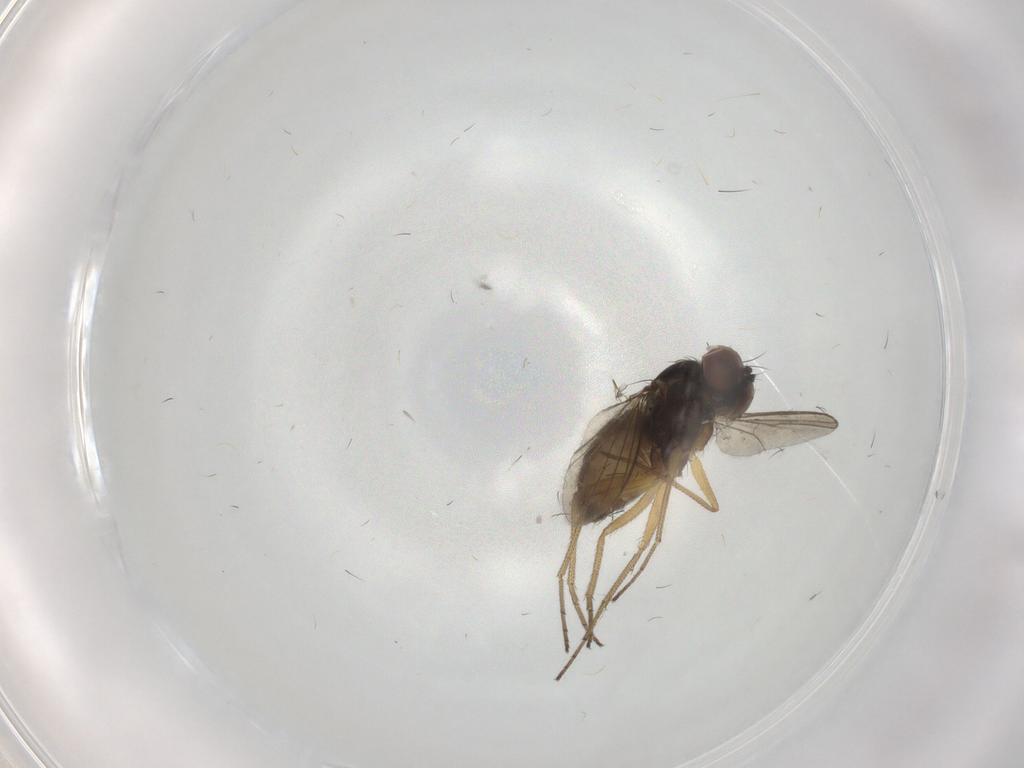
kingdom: Animalia
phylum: Arthropoda
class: Insecta
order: Diptera
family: Dolichopodidae
